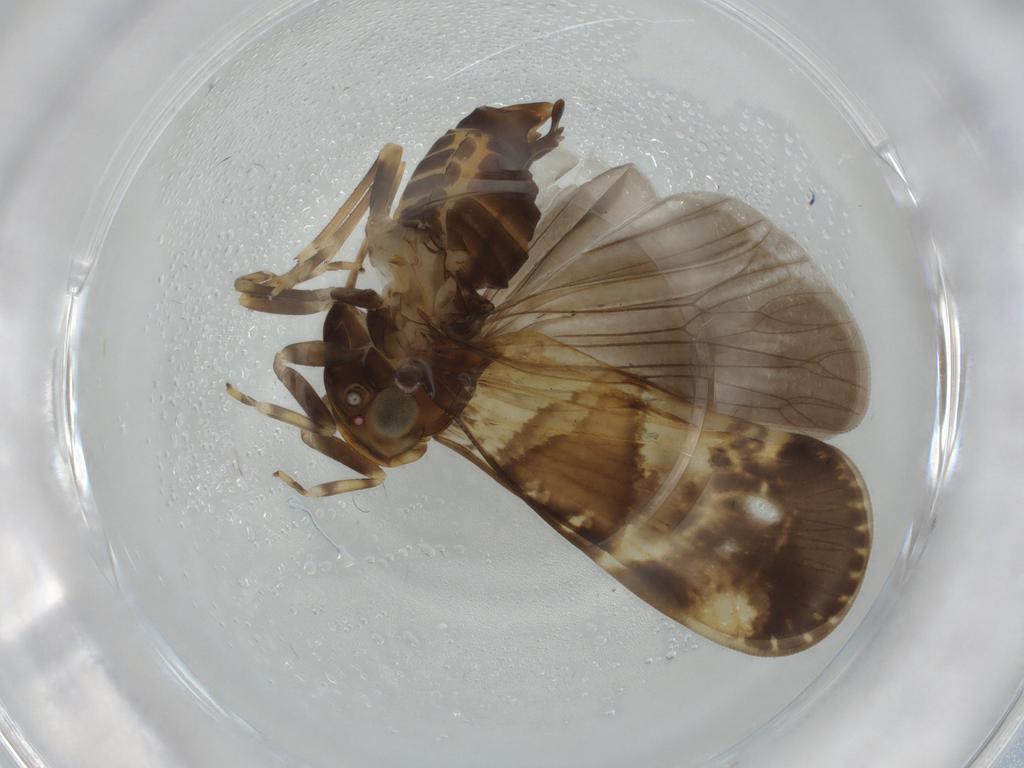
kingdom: Animalia
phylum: Arthropoda
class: Insecta
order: Hemiptera
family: Cixiidae
